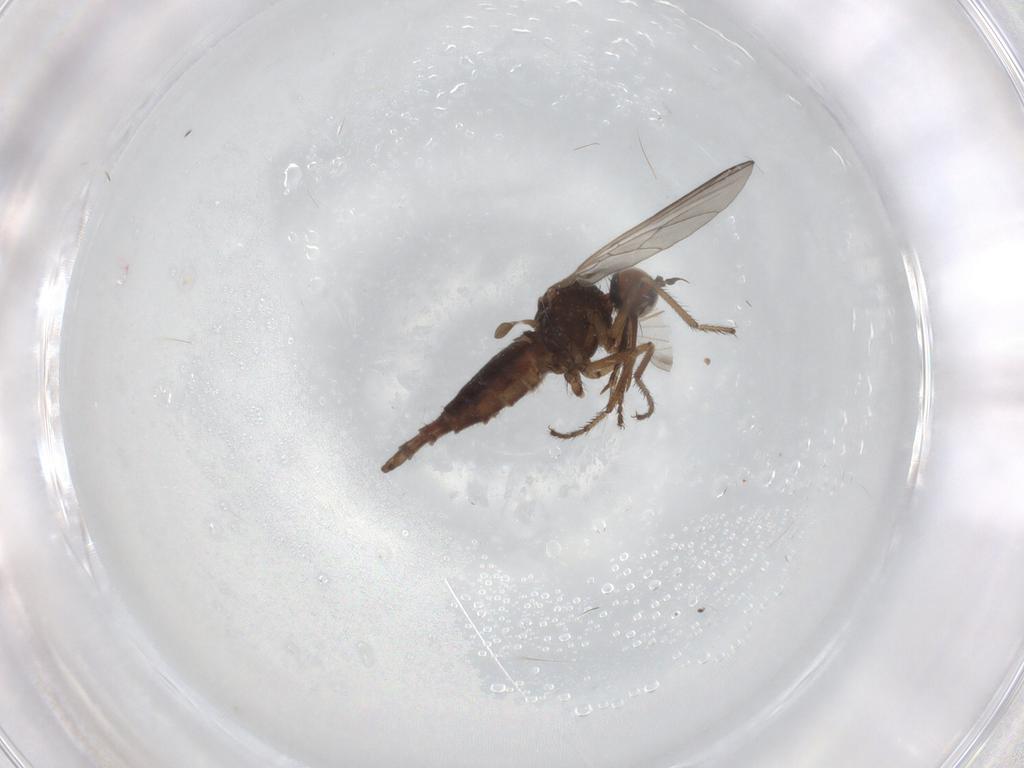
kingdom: Animalia
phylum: Arthropoda
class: Insecta
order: Diptera
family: Empididae
